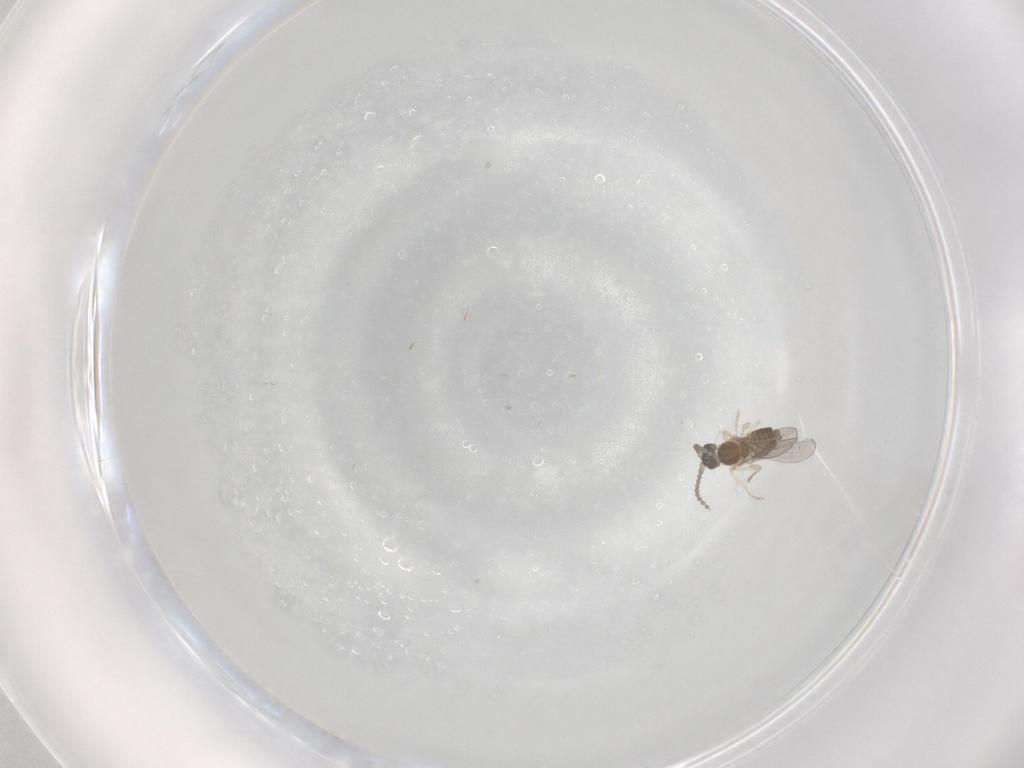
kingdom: Animalia
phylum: Arthropoda
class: Insecta
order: Diptera
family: Cecidomyiidae
